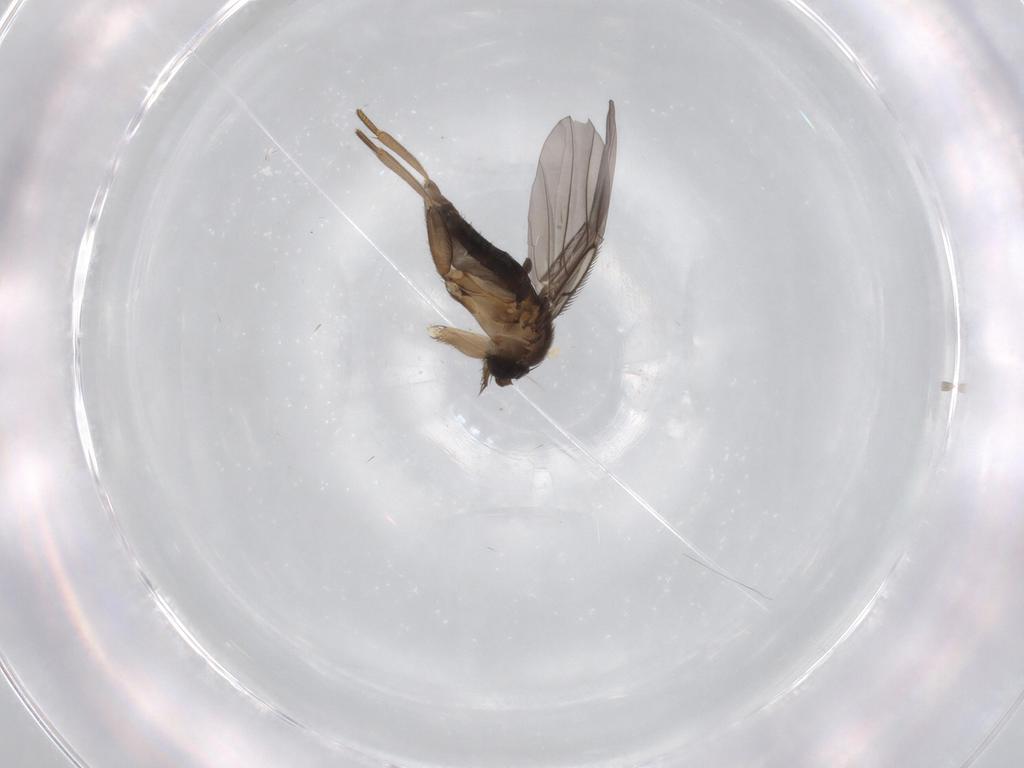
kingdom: Animalia
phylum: Arthropoda
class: Insecta
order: Diptera
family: Phoridae
